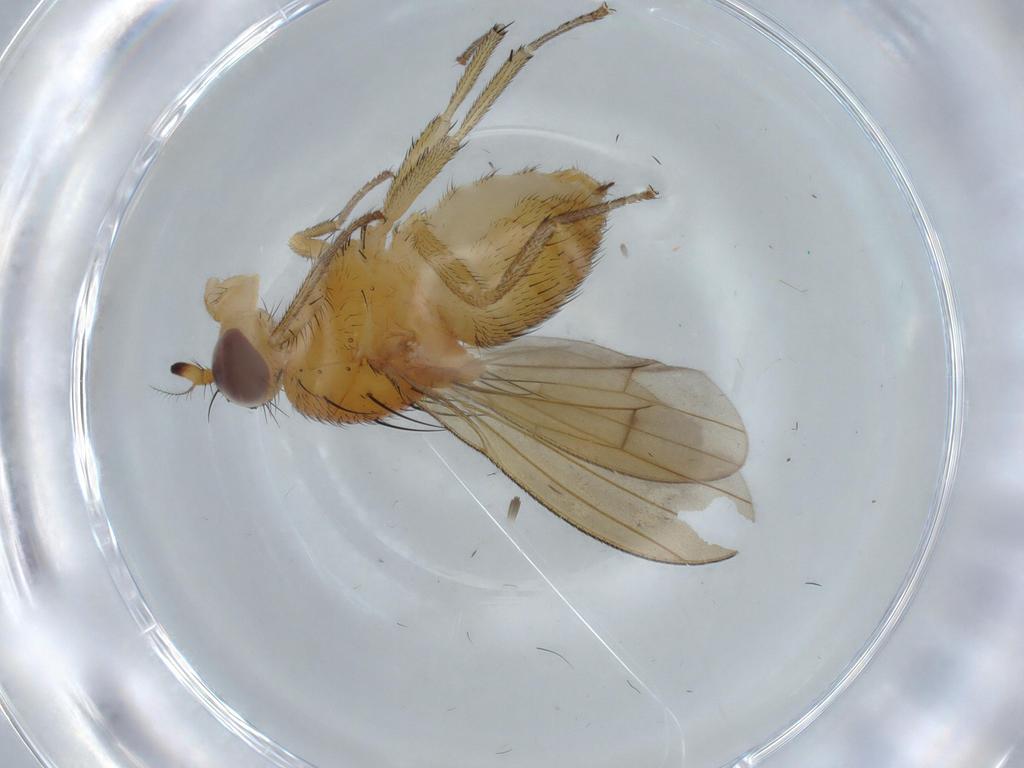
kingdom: Animalia
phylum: Arthropoda
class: Insecta
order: Diptera
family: Lauxaniidae
